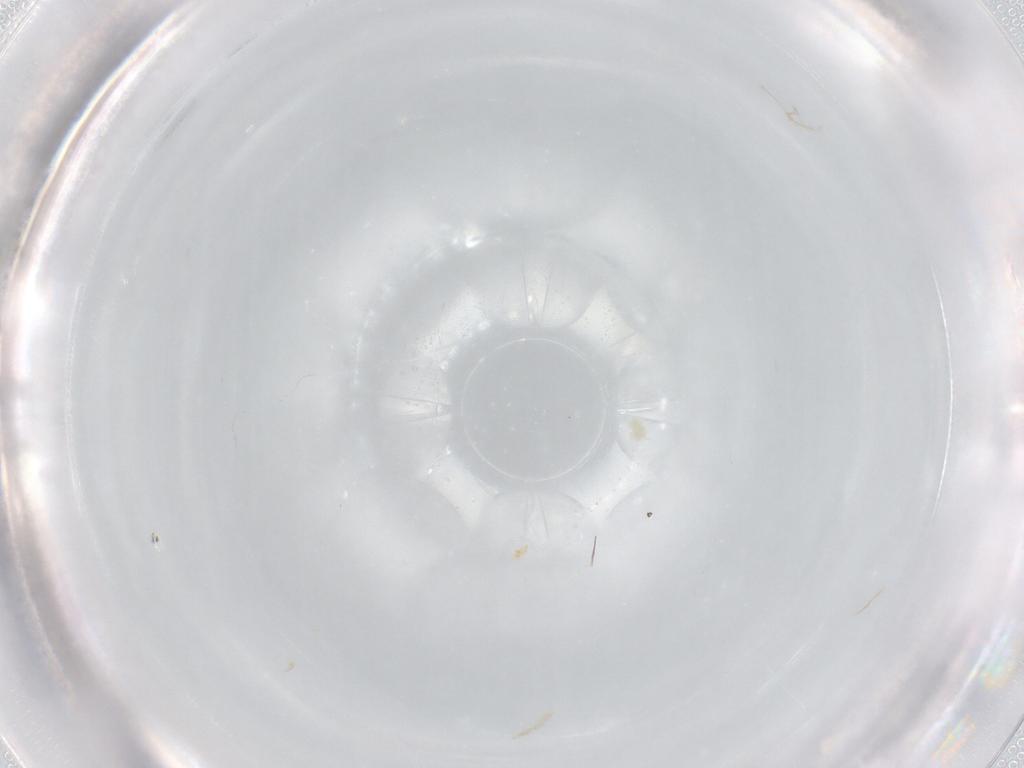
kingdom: Animalia
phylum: Arthropoda
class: Arachnida
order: Trombidiformes
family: Eupodidae
